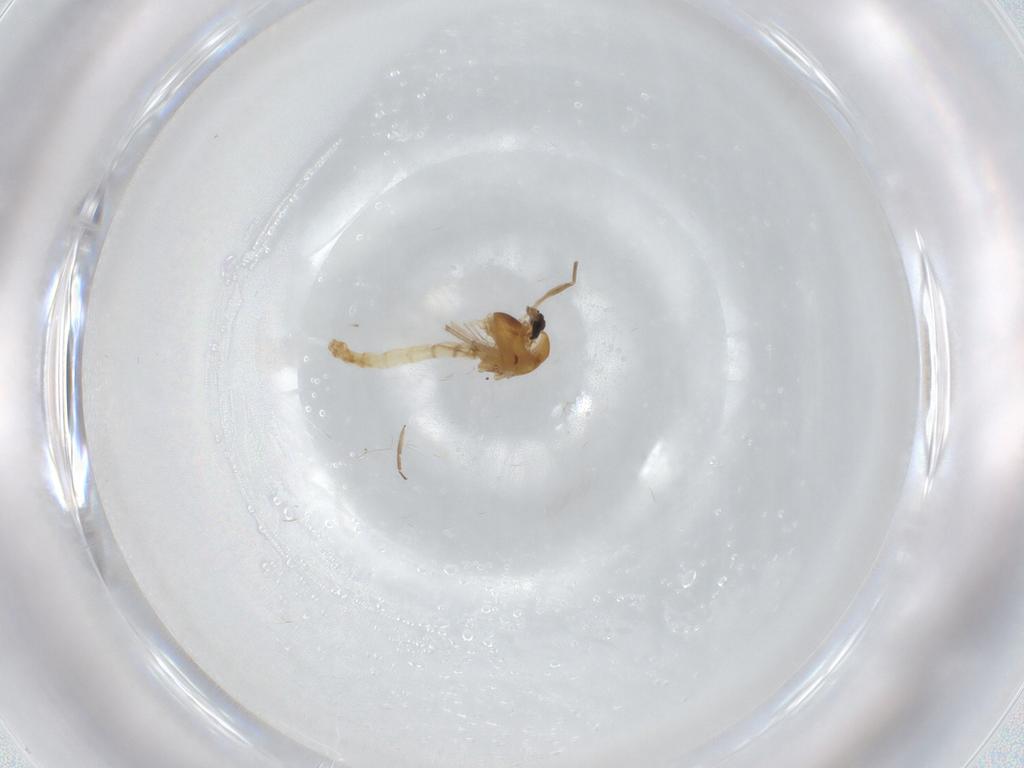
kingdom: Animalia
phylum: Arthropoda
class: Insecta
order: Diptera
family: Chironomidae
